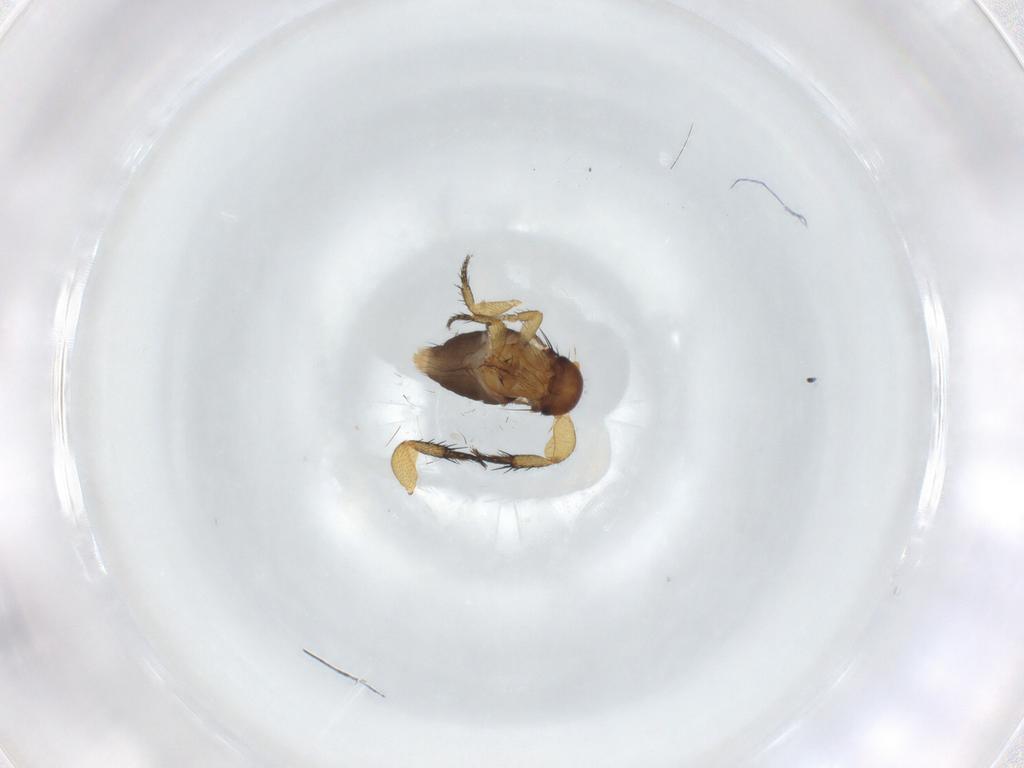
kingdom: Animalia
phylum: Arthropoda
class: Insecta
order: Diptera
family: Phoridae
